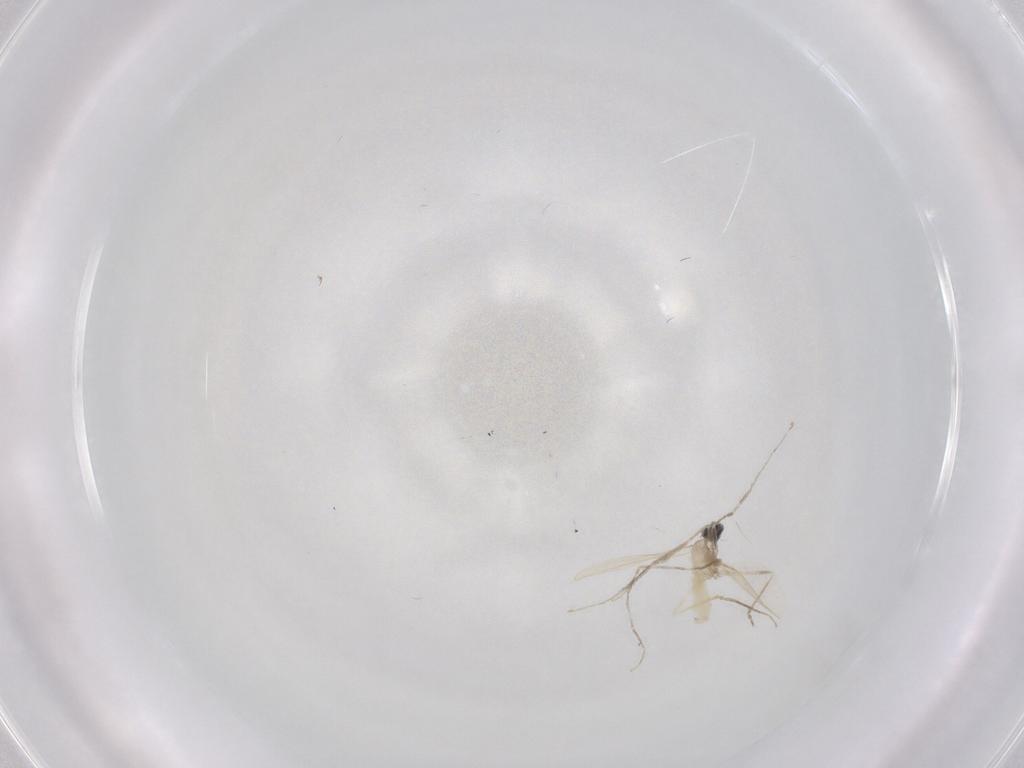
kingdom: Animalia
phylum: Arthropoda
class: Insecta
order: Diptera
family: Cecidomyiidae
